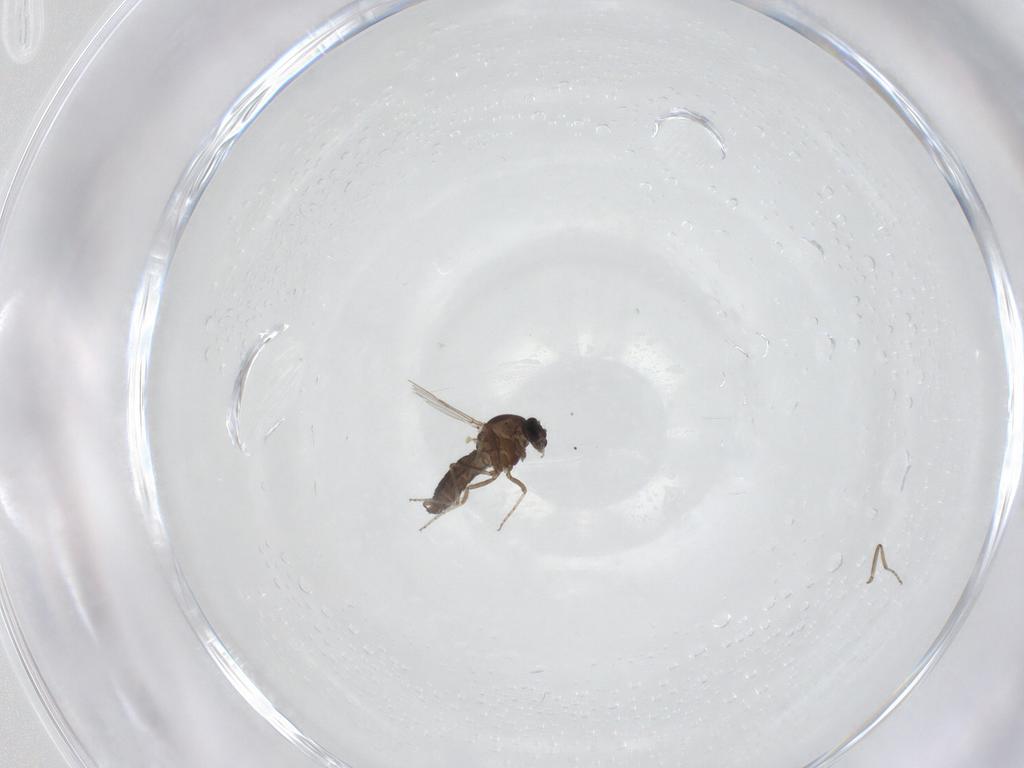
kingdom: Animalia
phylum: Arthropoda
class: Insecta
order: Diptera
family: Ceratopogonidae
